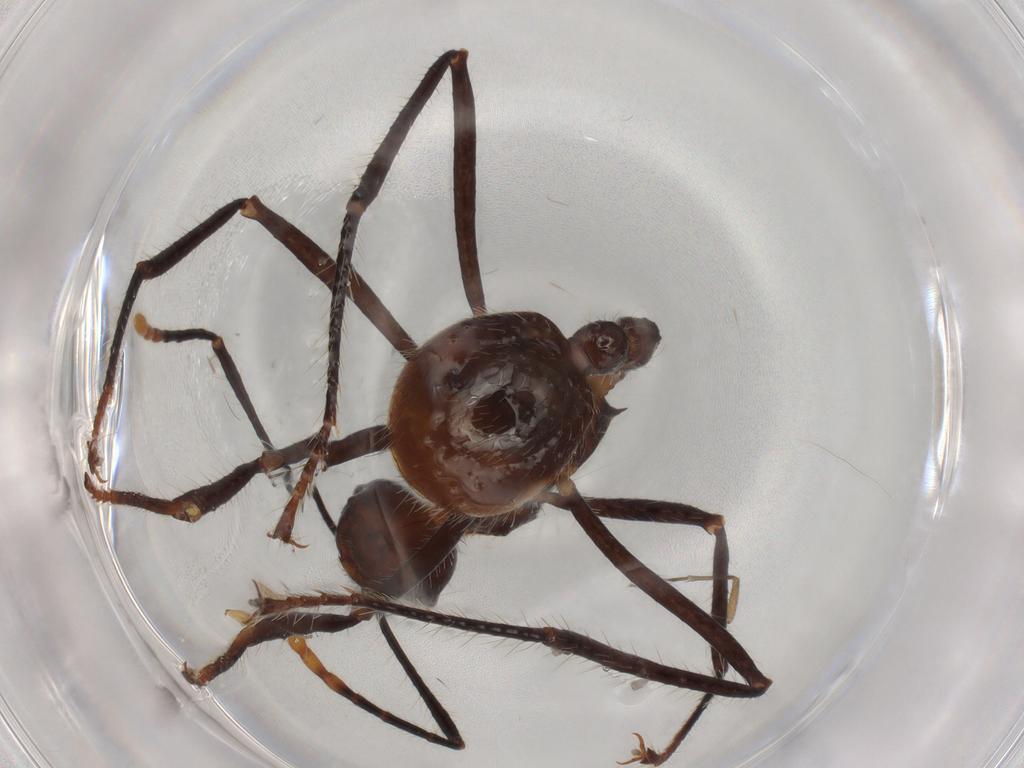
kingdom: Animalia
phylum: Arthropoda
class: Insecta
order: Hymenoptera
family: Formicidae
